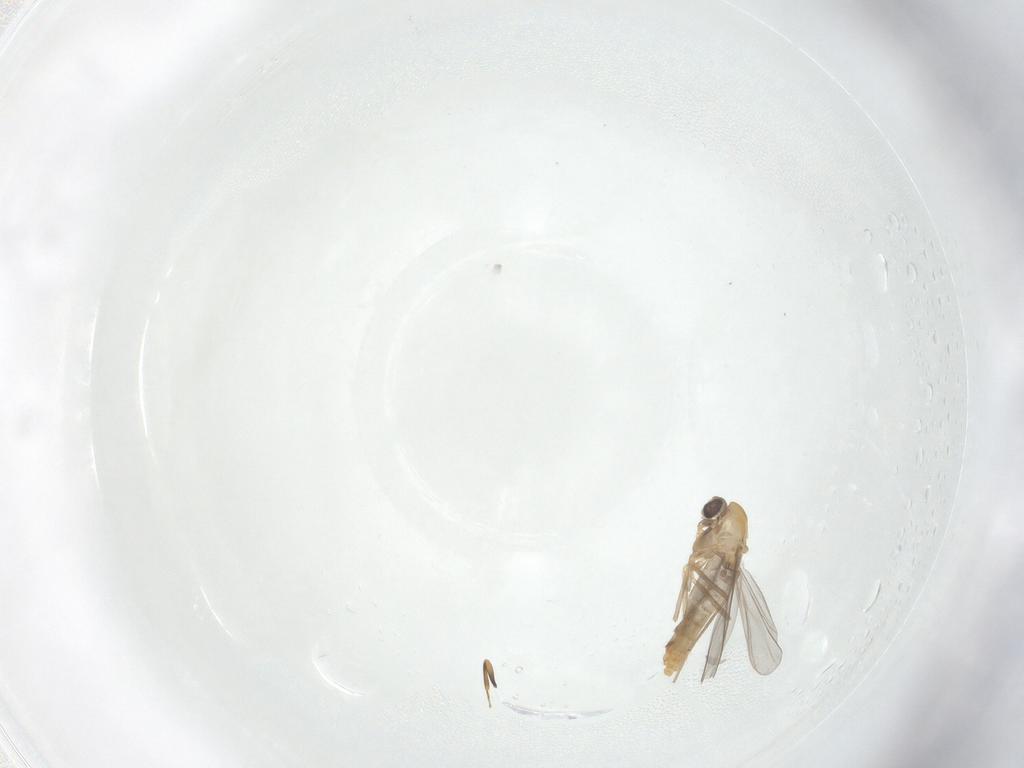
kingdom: Animalia
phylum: Arthropoda
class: Insecta
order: Diptera
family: Chironomidae
